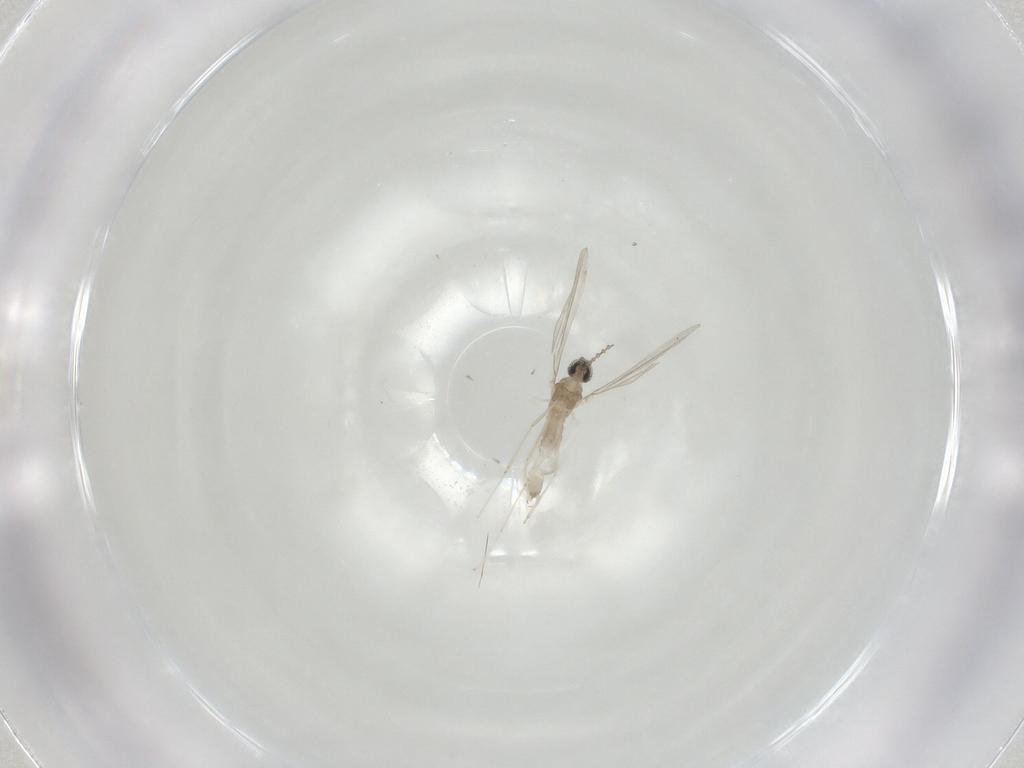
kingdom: Animalia
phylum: Arthropoda
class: Insecta
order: Diptera
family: Cecidomyiidae
